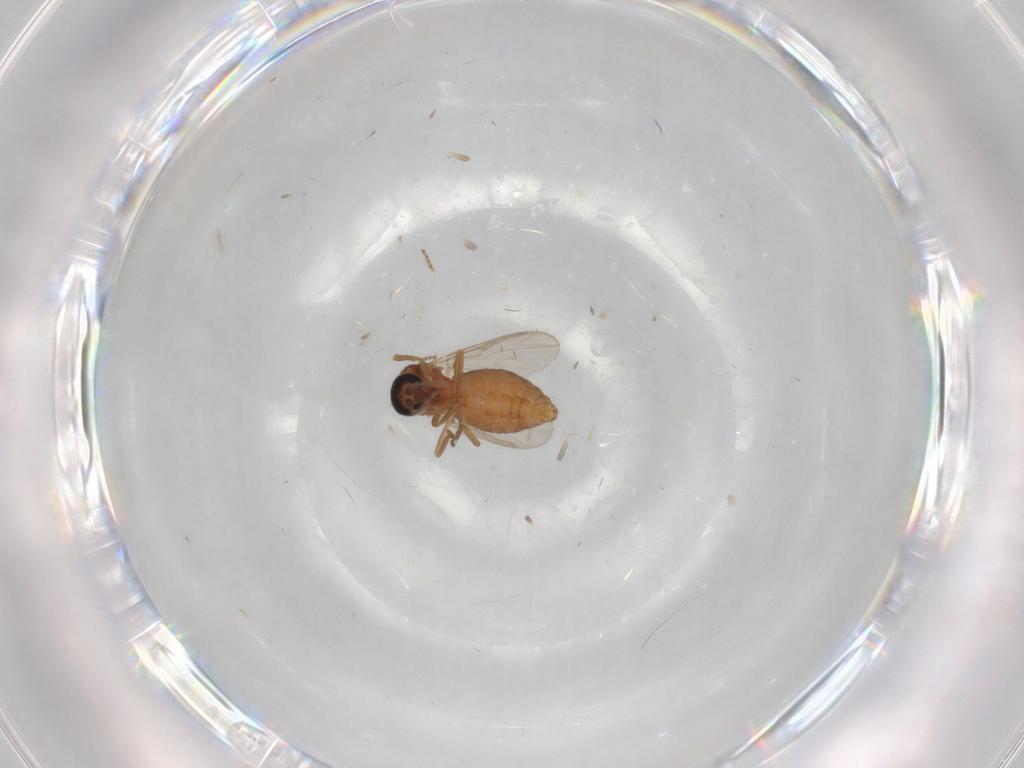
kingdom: Animalia
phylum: Arthropoda
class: Insecta
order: Diptera
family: Ceratopogonidae
